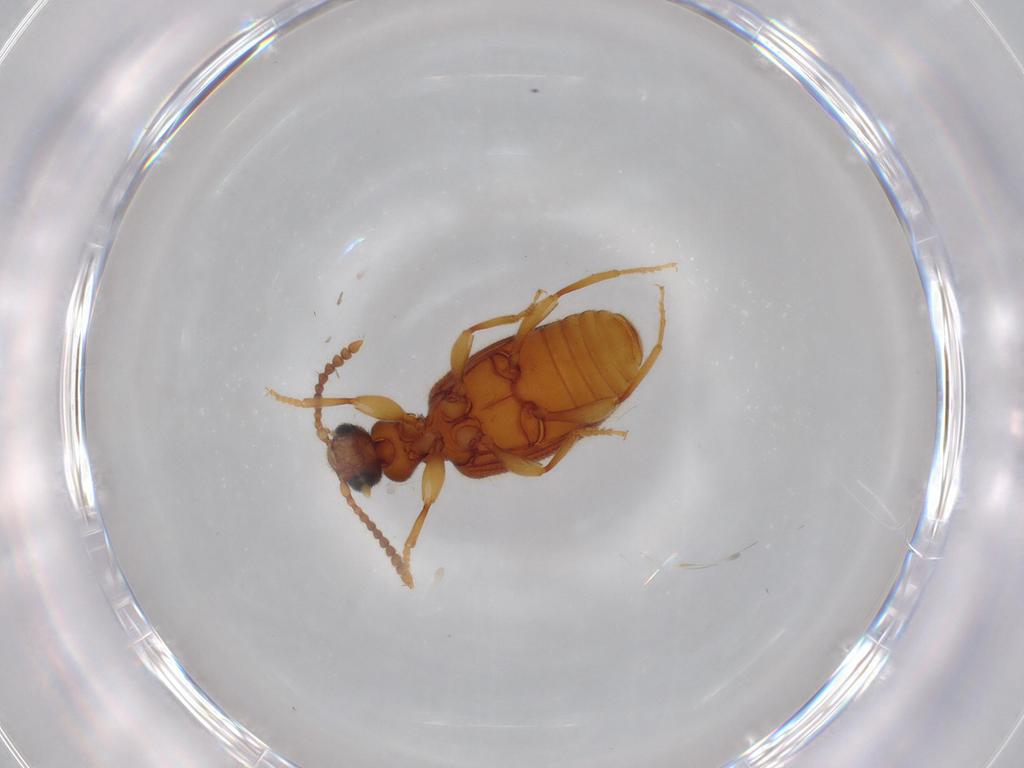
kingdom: Animalia
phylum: Arthropoda
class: Insecta
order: Coleoptera
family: Anthicidae
